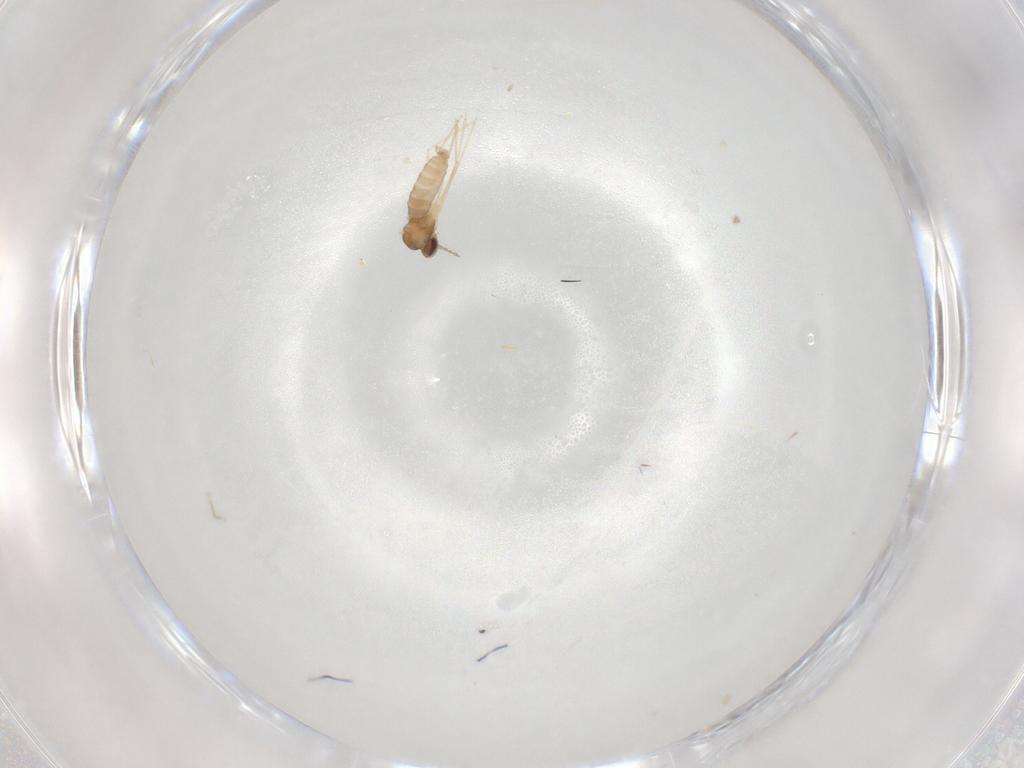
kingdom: Animalia
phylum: Arthropoda
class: Insecta
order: Diptera
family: Cecidomyiidae
